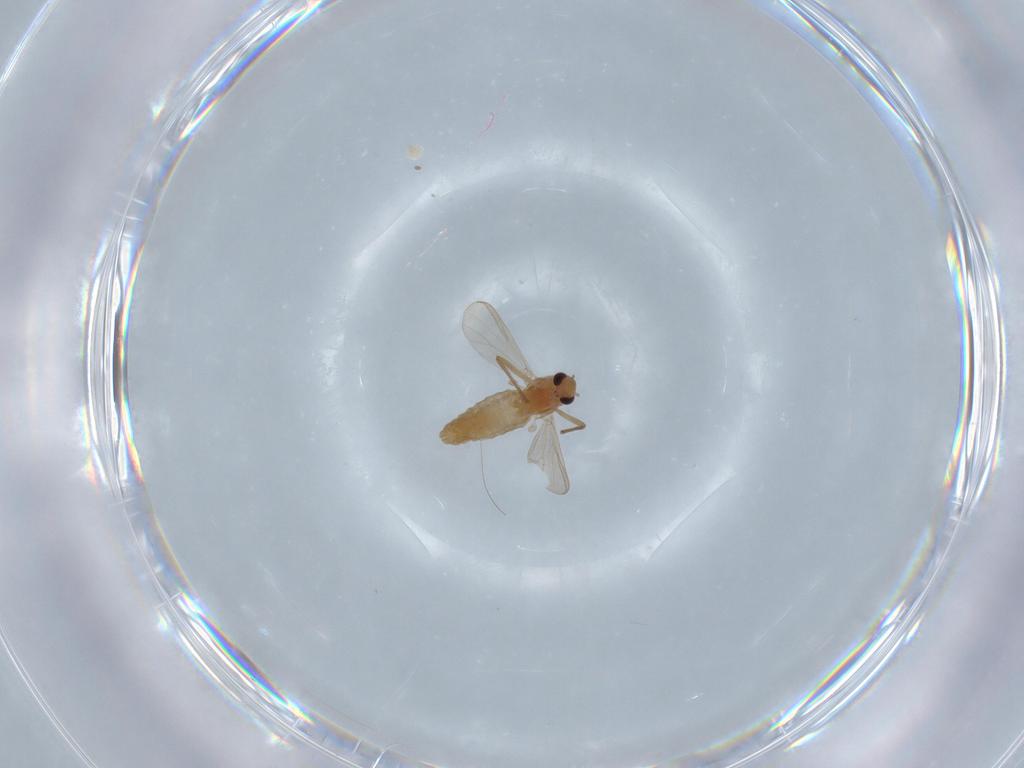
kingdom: Animalia
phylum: Arthropoda
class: Insecta
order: Diptera
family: Chironomidae
